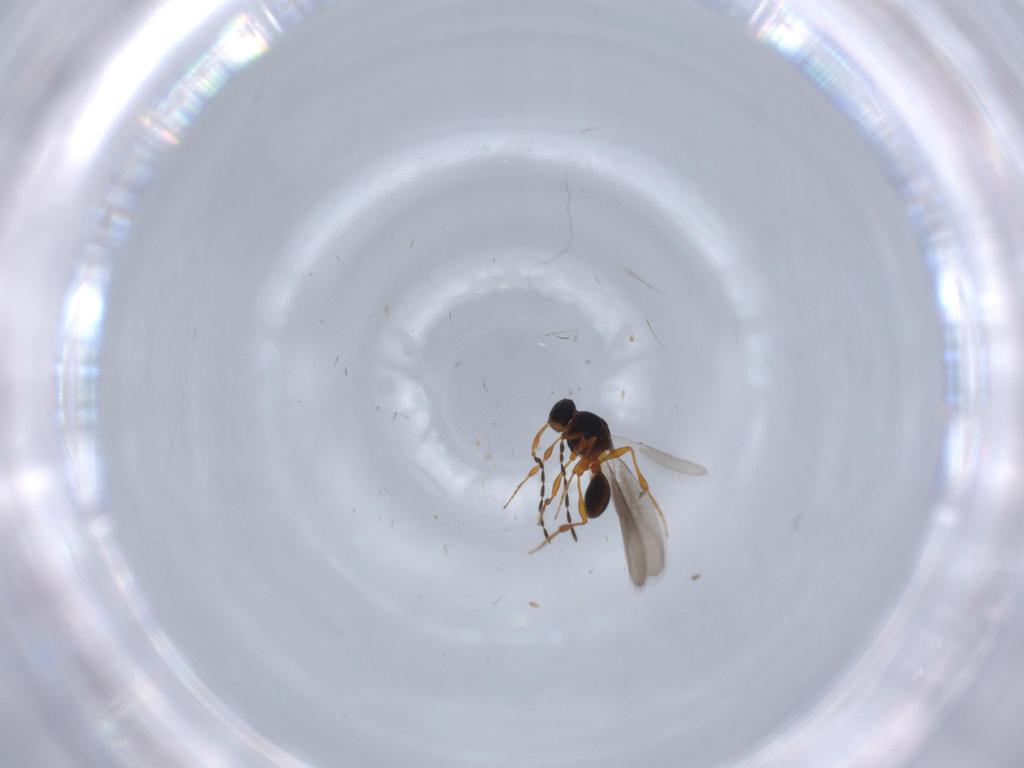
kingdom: Animalia
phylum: Arthropoda
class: Insecta
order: Hymenoptera
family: Platygastridae
